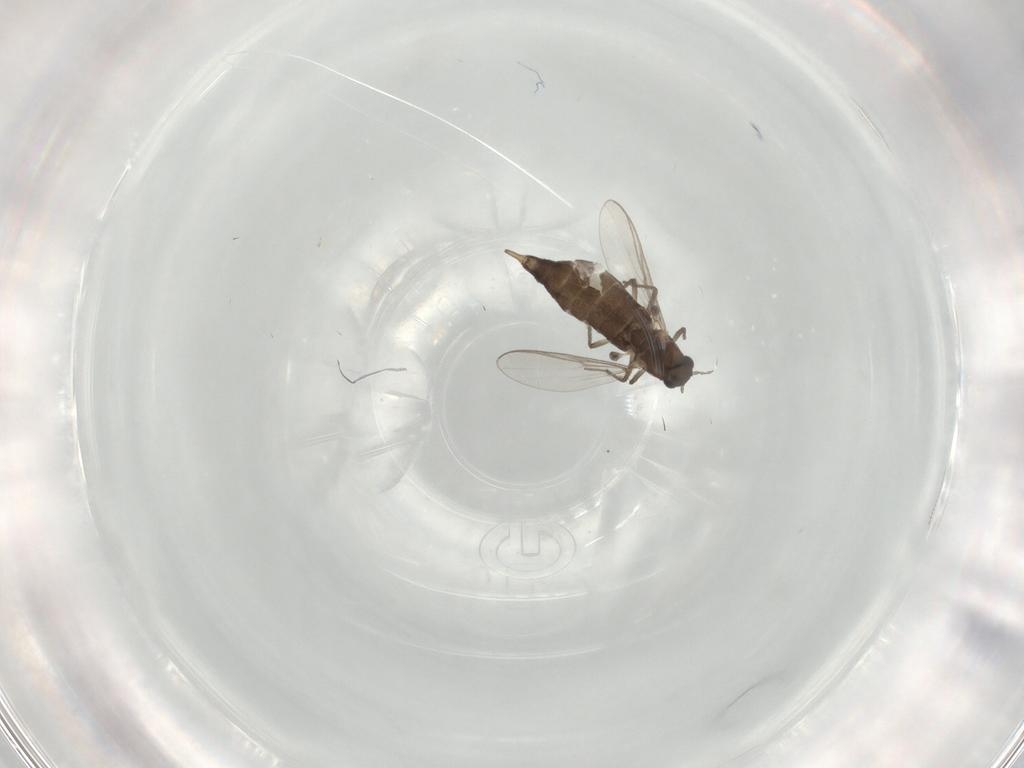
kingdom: Animalia
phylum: Arthropoda
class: Insecta
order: Diptera
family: Chironomidae
